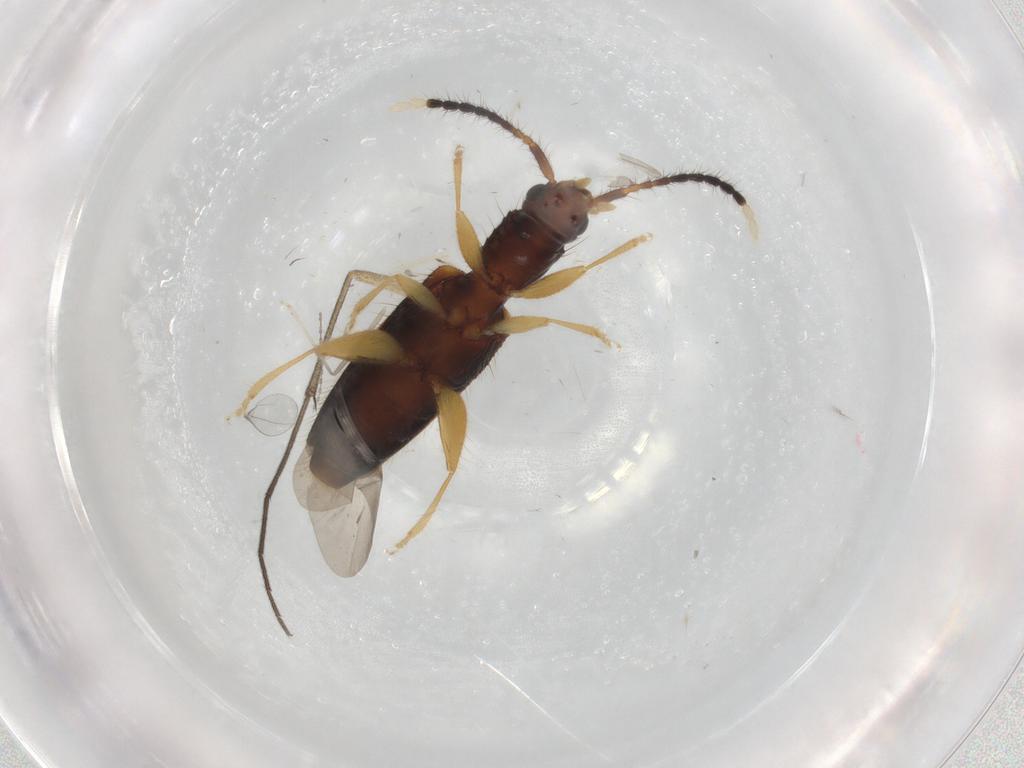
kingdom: Animalia
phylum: Arthropoda
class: Insecta
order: Coleoptera
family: Silvanidae
